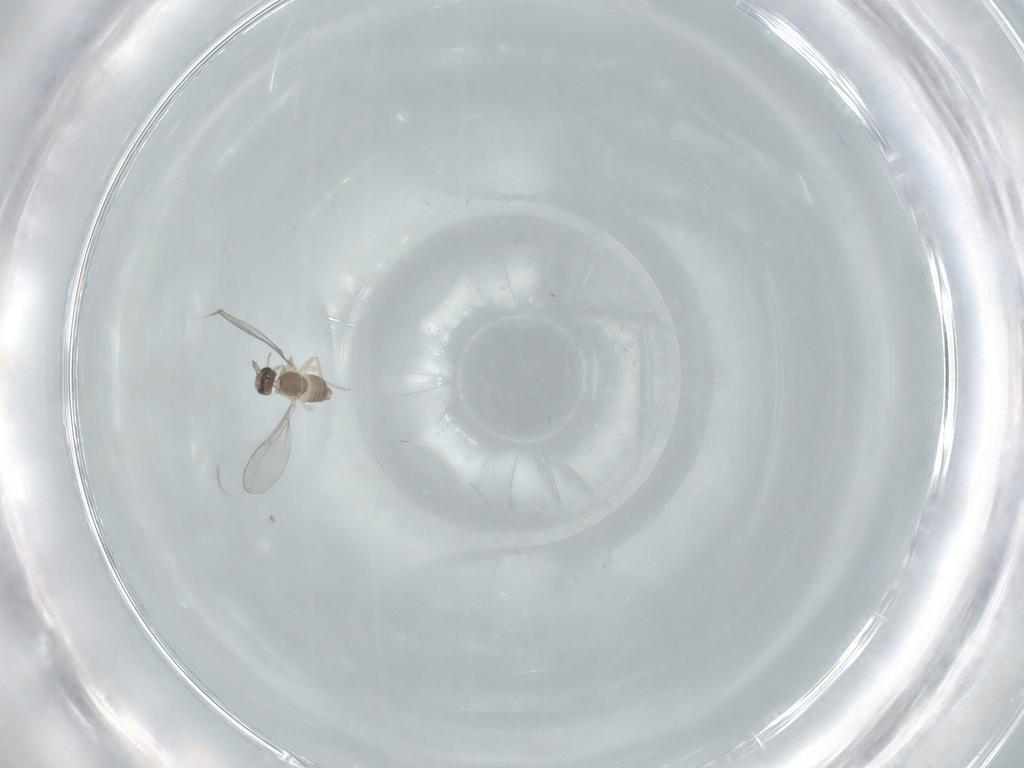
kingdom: Animalia
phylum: Arthropoda
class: Insecta
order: Diptera
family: Cecidomyiidae
